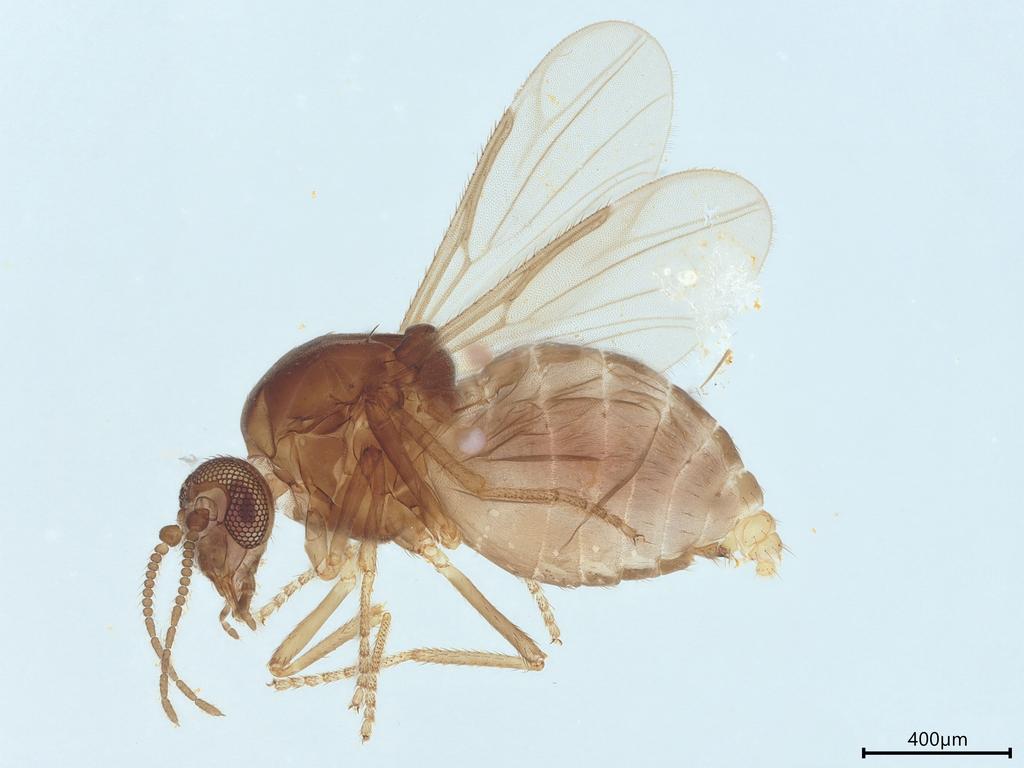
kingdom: Animalia
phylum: Arthropoda
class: Insecta
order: Diptera
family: Ceratopogonidae
